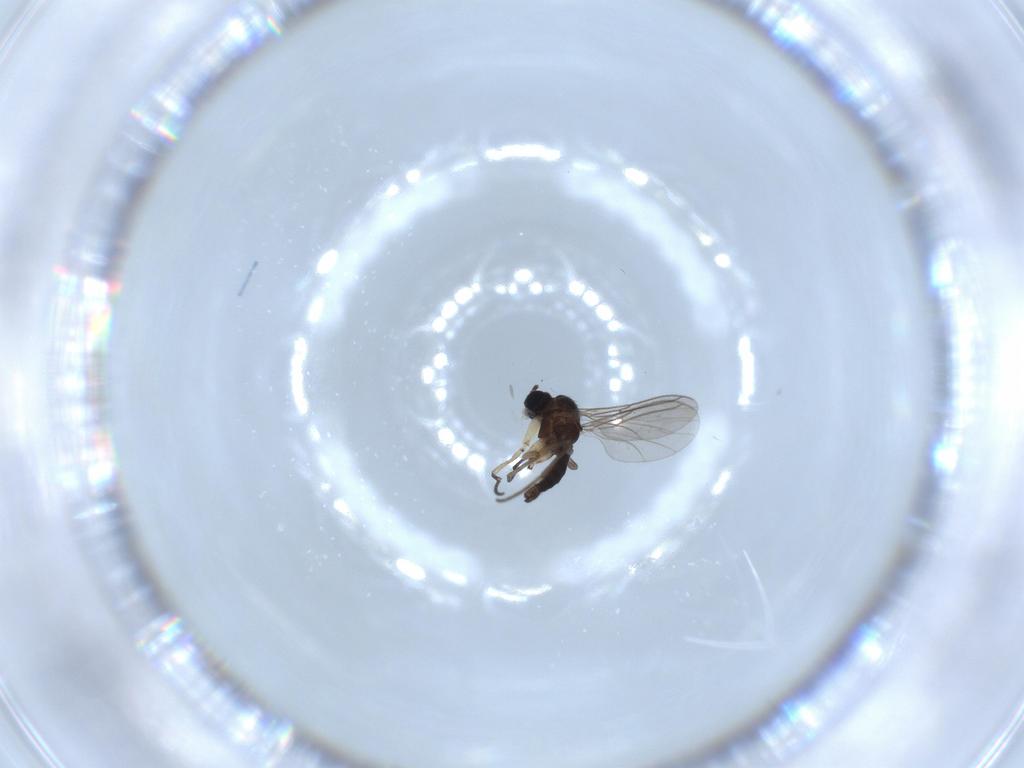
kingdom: Animalia
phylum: Arthropoda
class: Insecta
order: Diptera
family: Sciaridae
